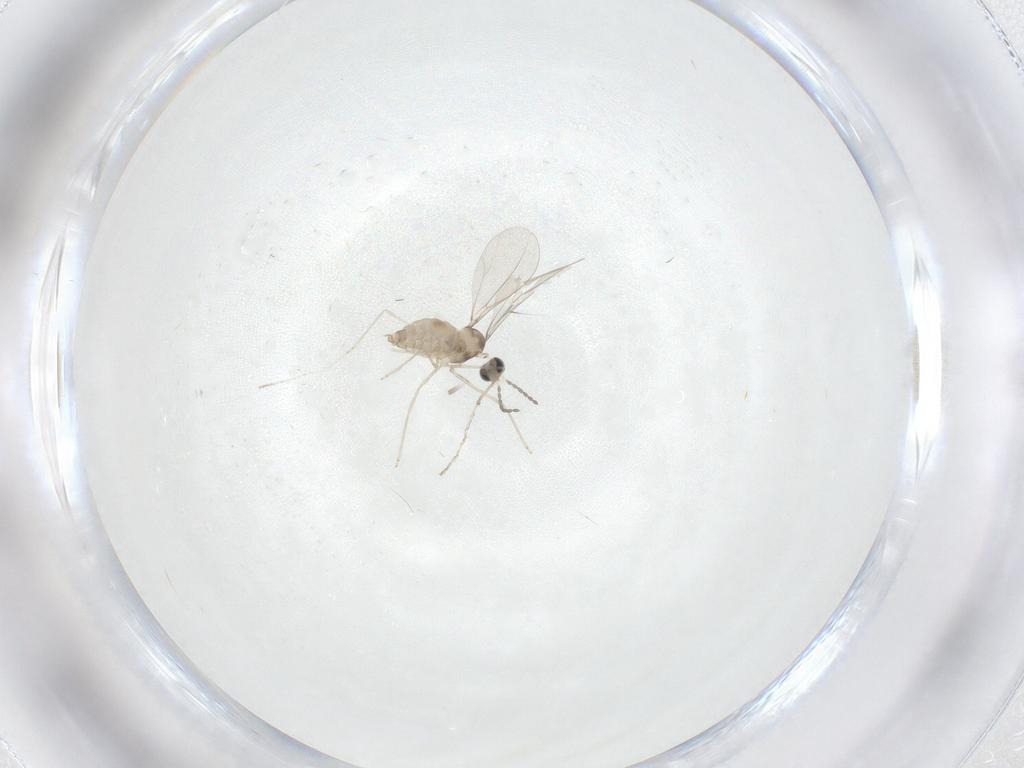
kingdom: Animalia
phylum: Arthropoda
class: Insecta
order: Diptera
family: Cecidomyiidae
